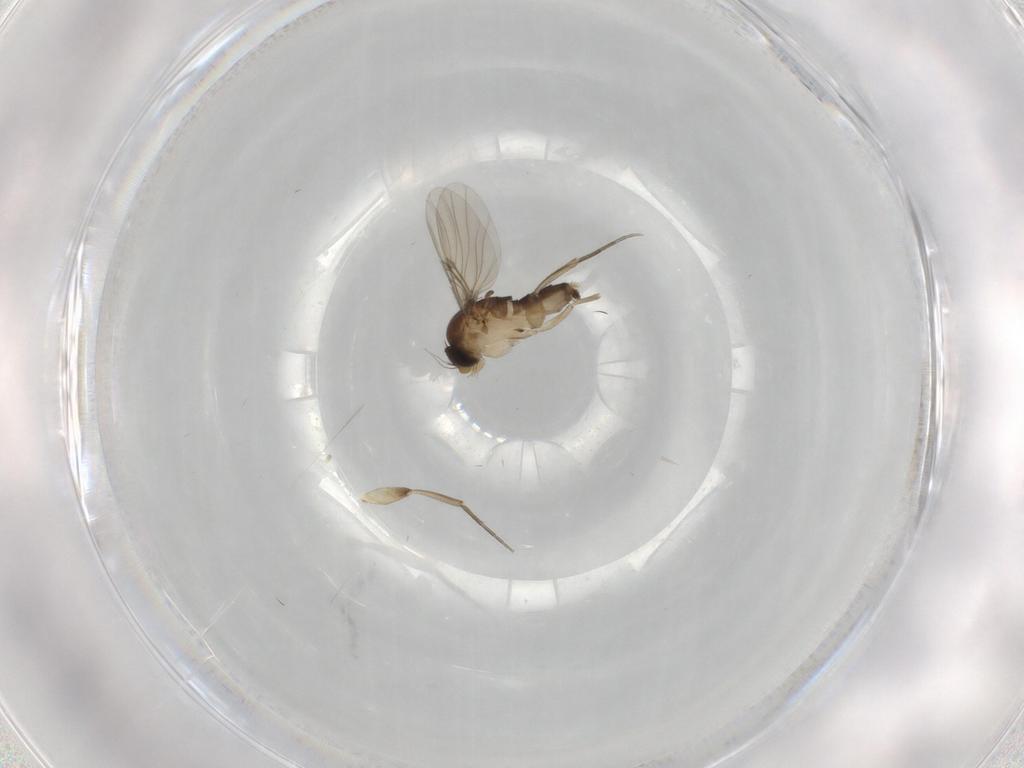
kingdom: Animalia
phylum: Arthropoda
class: Insecta
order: Diptera
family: Phoridae
